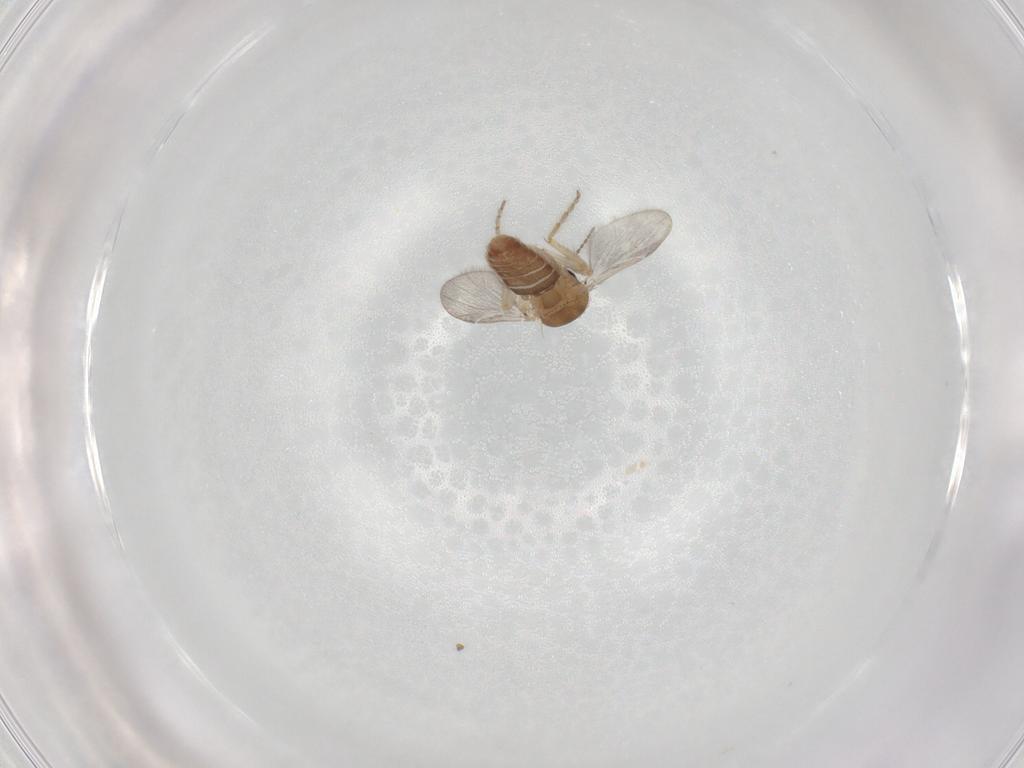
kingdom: Animalia
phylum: Arthropoda
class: Insecta
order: Diptera
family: Ceratopogonidae
